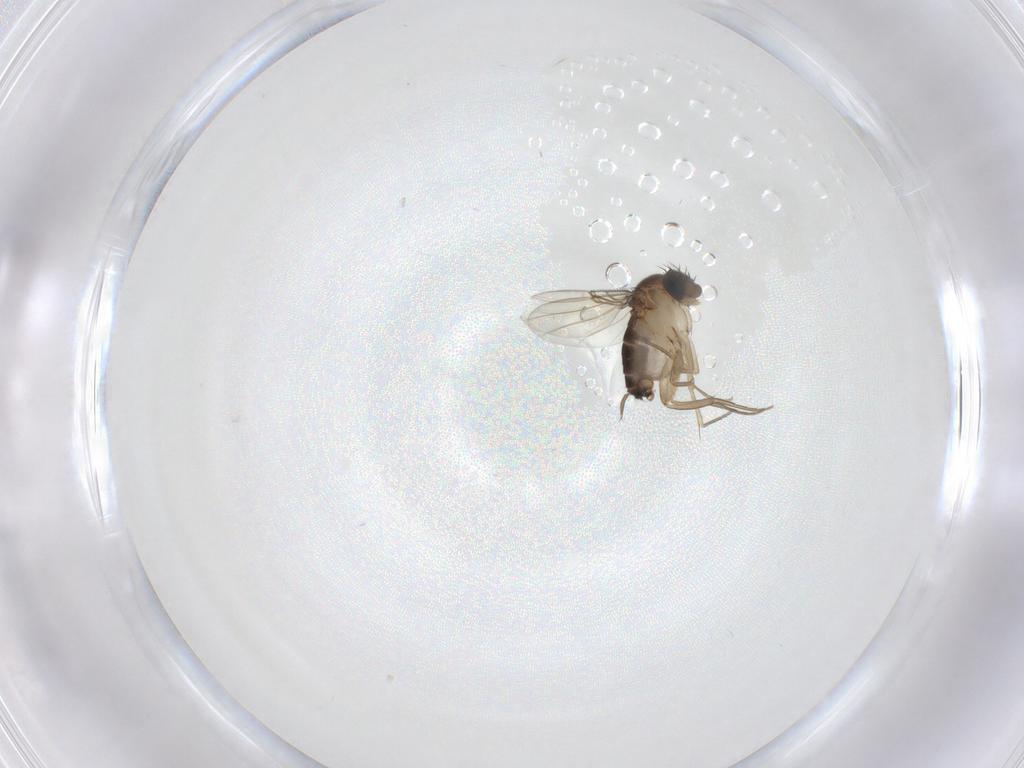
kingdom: Animalia
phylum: Arthropoda
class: Insecta
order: Diptera
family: Phoridae
